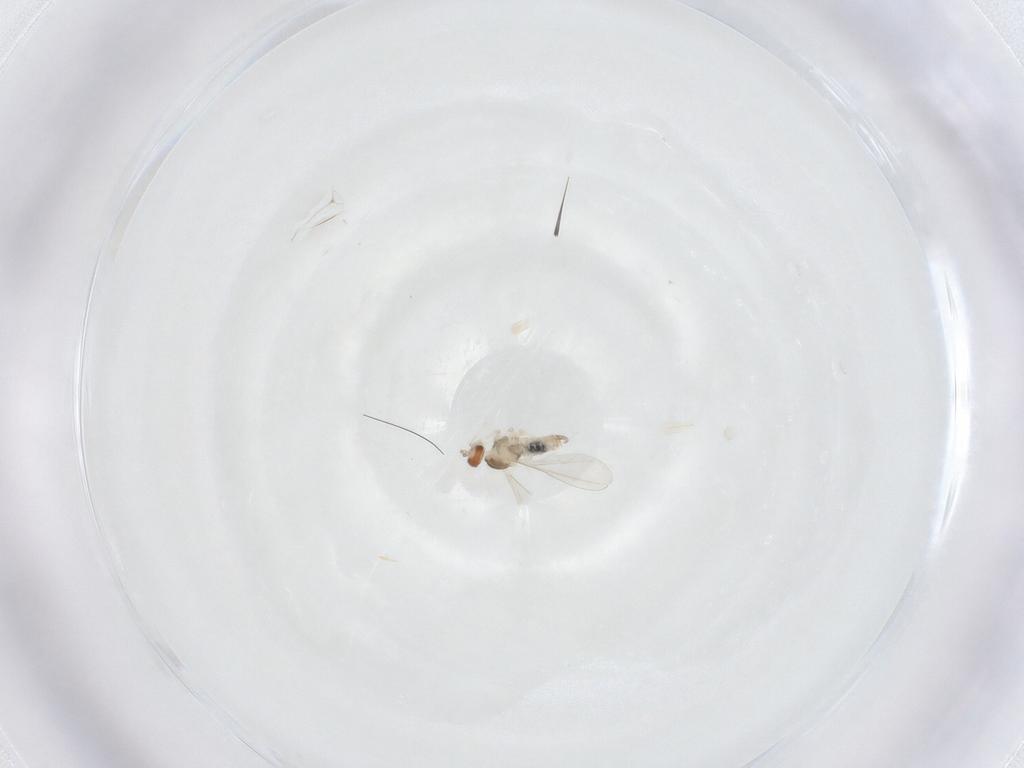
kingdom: Animalia
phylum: Arthropoda
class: Insecta
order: Diptera
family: Cecidomyiidae
